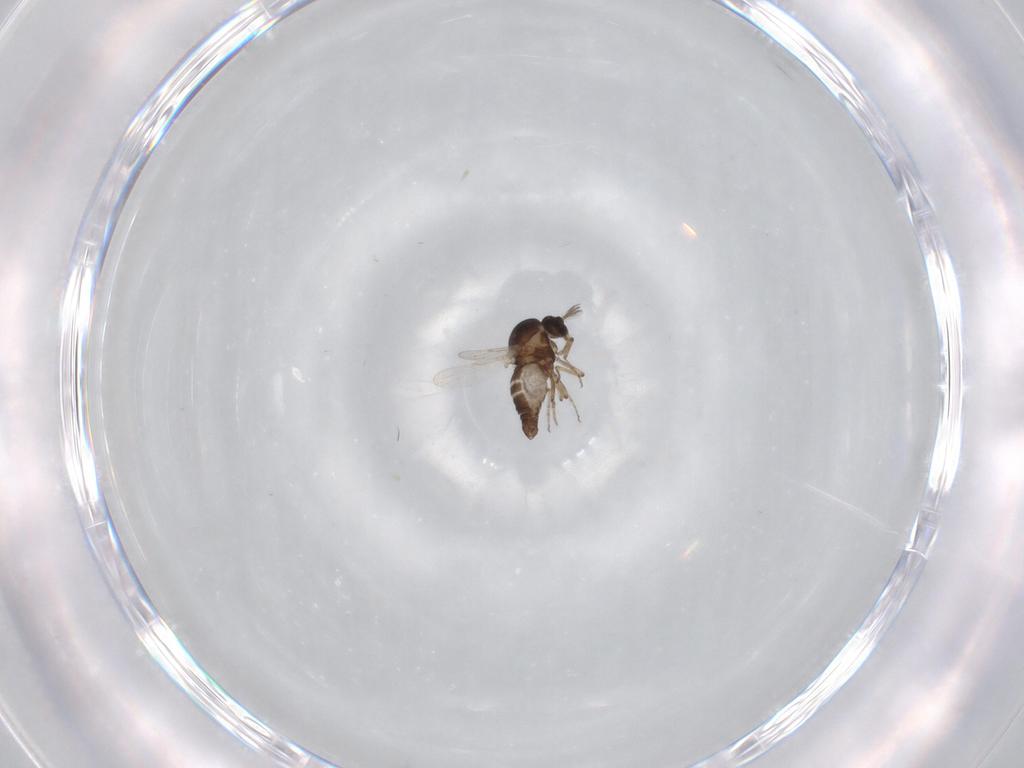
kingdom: Animalia
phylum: Arthropoda
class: Insecta
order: Diptera
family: Ceratopogonidae
